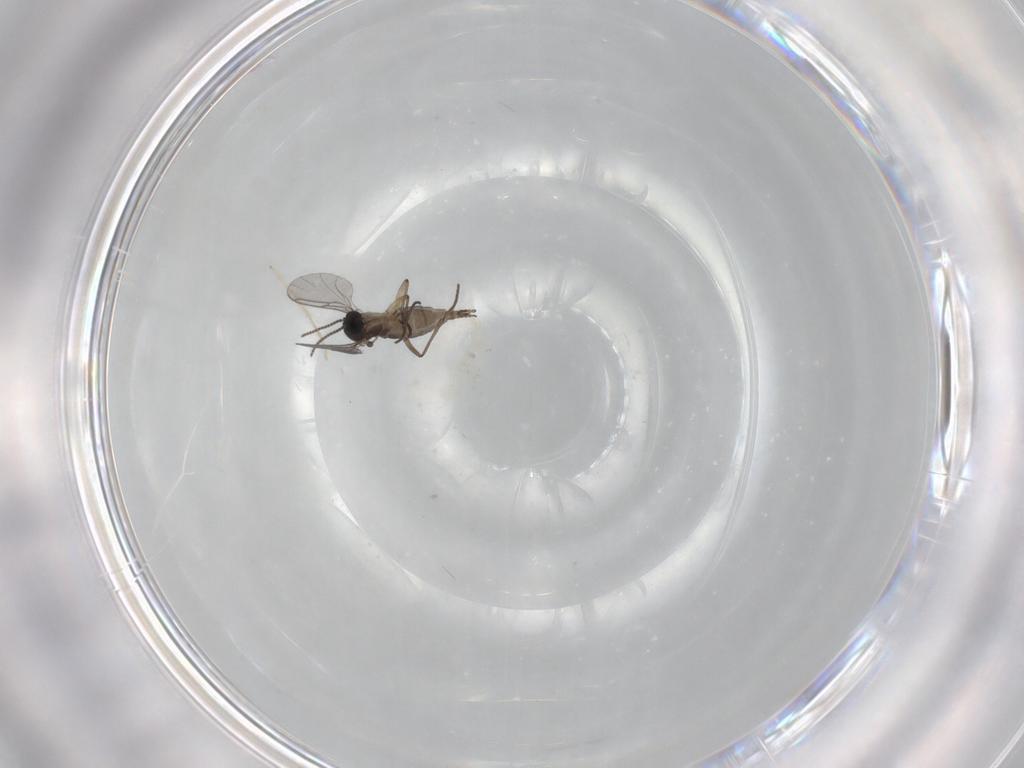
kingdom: Animalia
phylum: Arthropoda
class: Insecta
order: Diptera
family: Sciaridae
